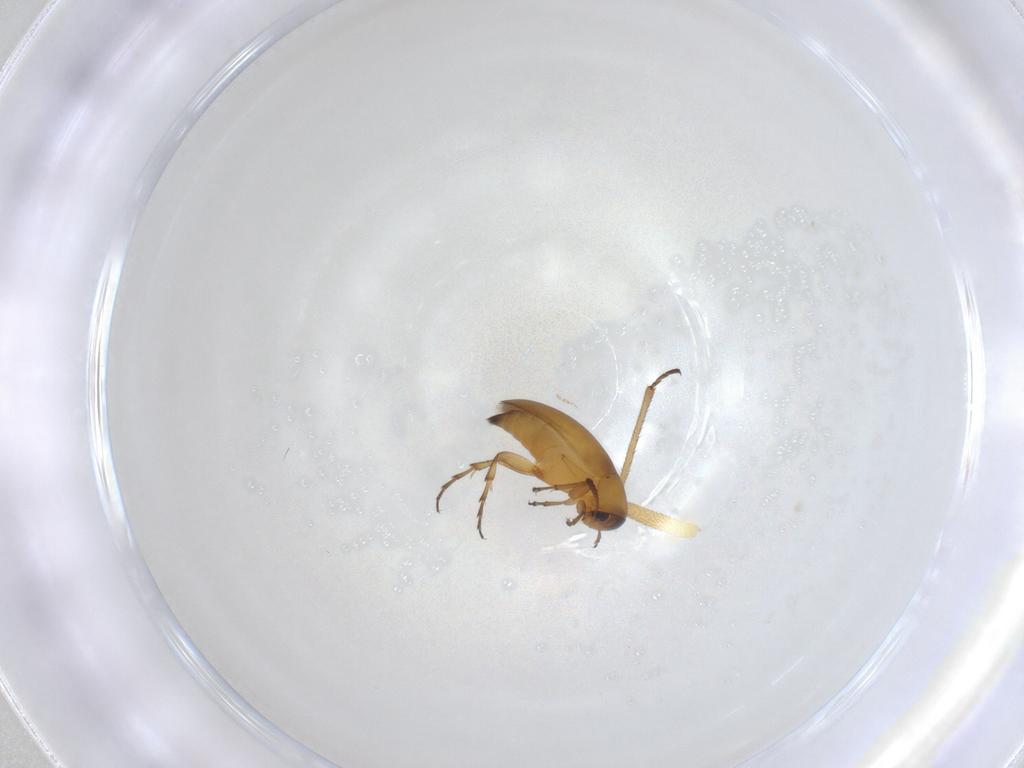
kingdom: Animalia
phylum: Arthropoda
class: Insecta
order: Coleoptera
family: Scraptiidae
